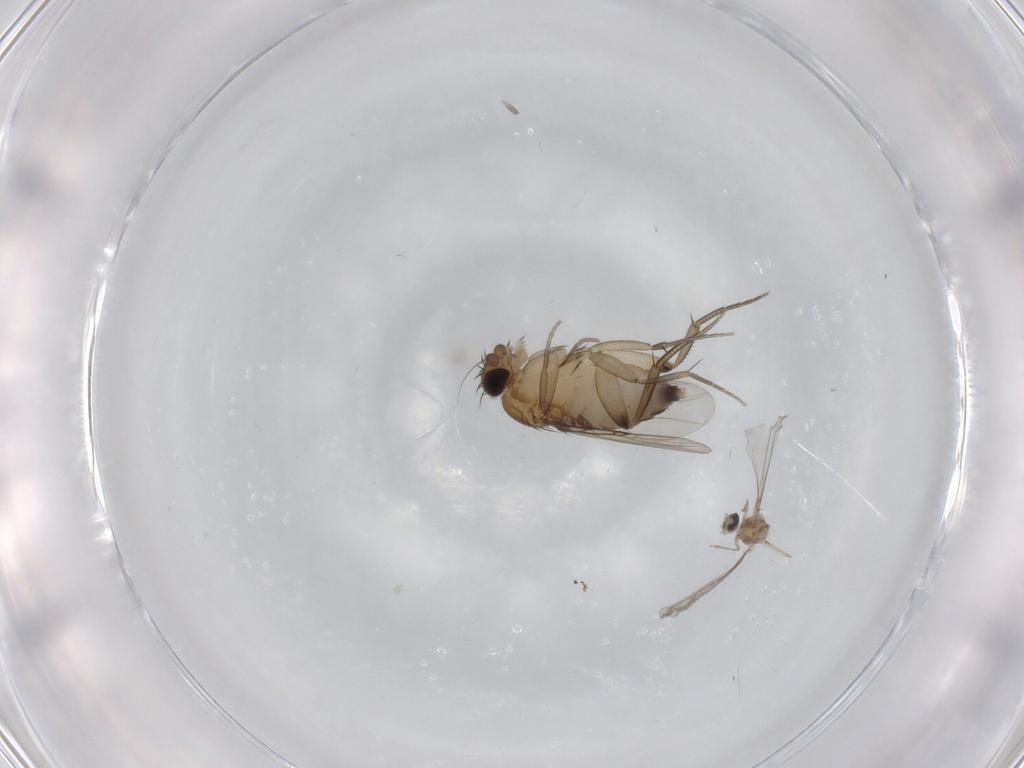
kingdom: Animalia
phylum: Arthropoda
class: Insecta
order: Diptera
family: Phoridae
